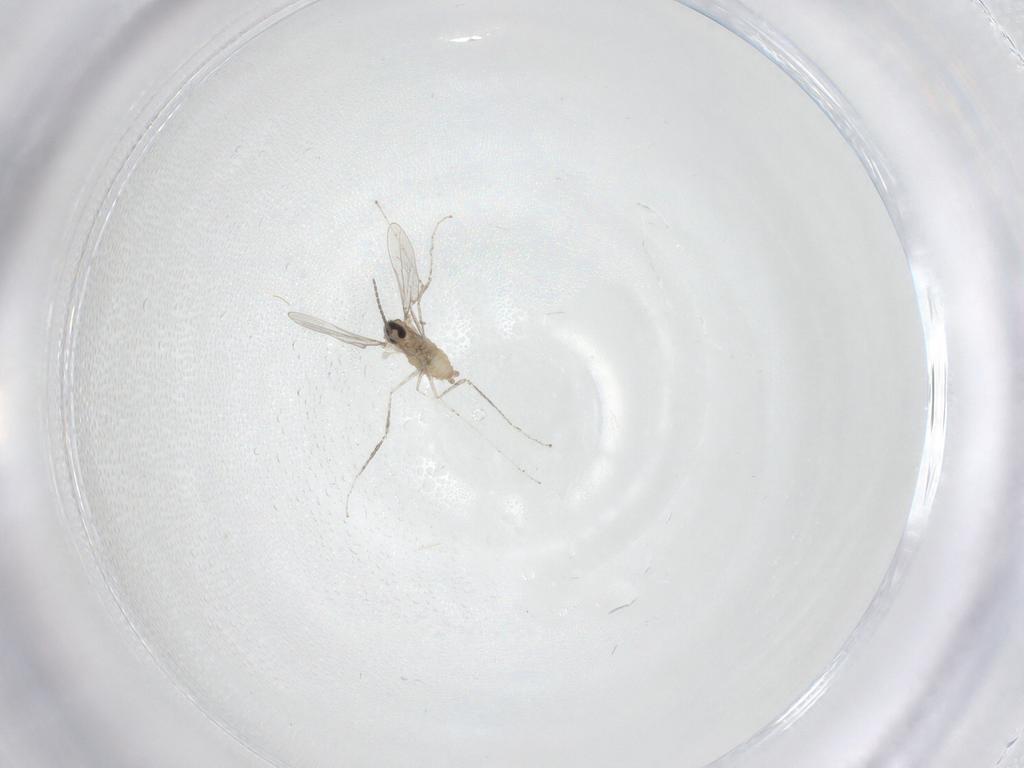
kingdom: Animalia
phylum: Arthropoda
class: Insecta
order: Diptera
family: Cecidomyiidae
